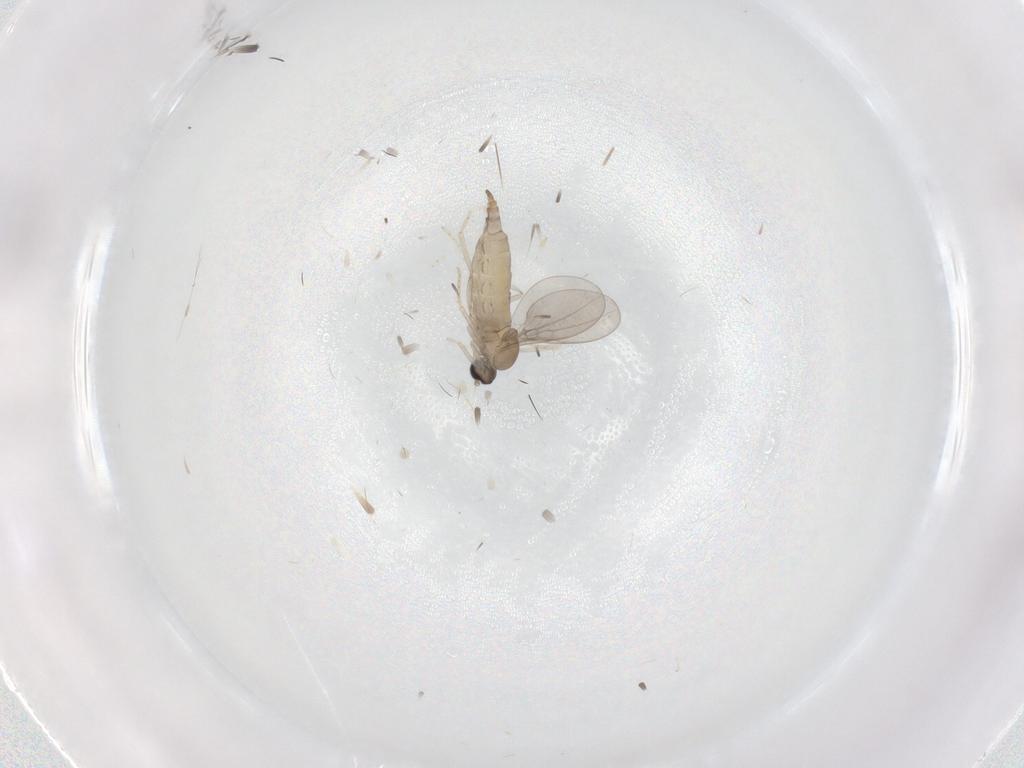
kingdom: Animalia
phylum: Arthropoda
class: Insecta
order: Diptera
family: Cecidomyiidae
